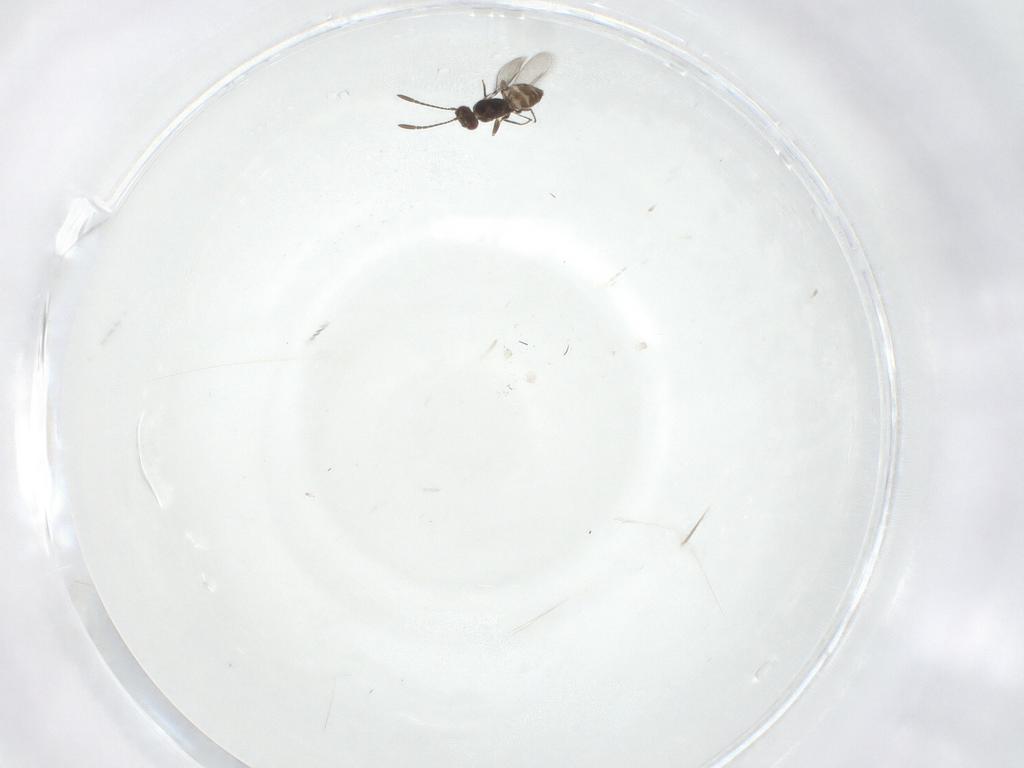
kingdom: Animalia
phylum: Arthropoda
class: Insecta
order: Hymenoptera
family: Mymaridae
